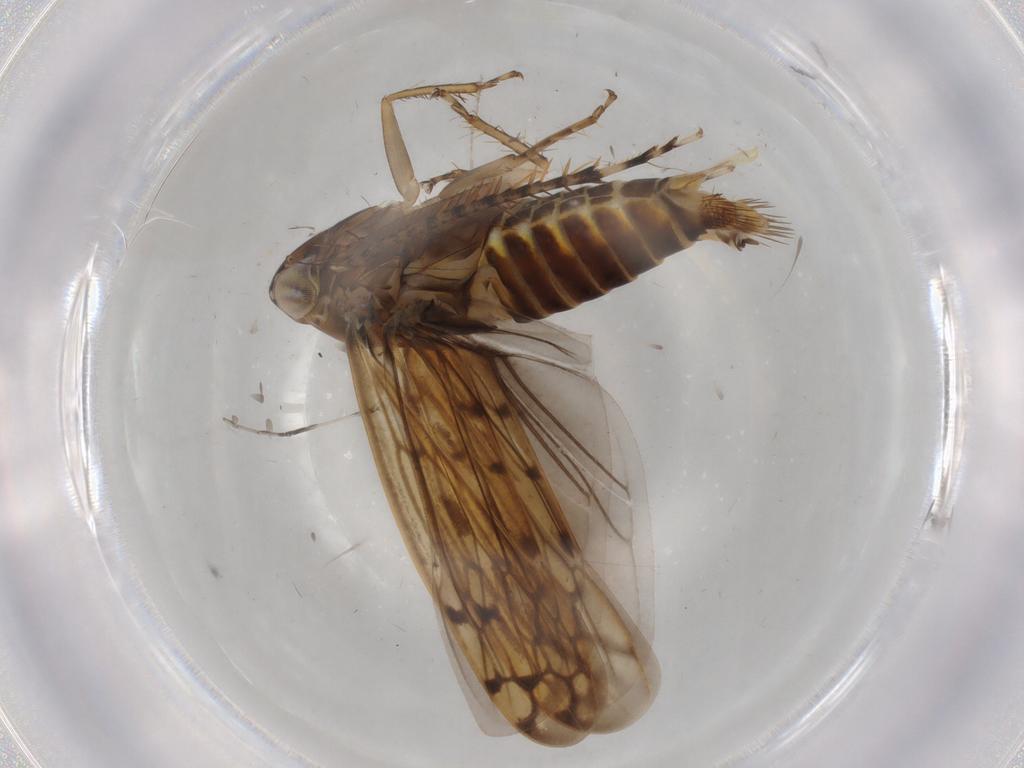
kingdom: Animalia
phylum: Arthropoda
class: Insecta
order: Hemiptera
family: Cicadellidae
